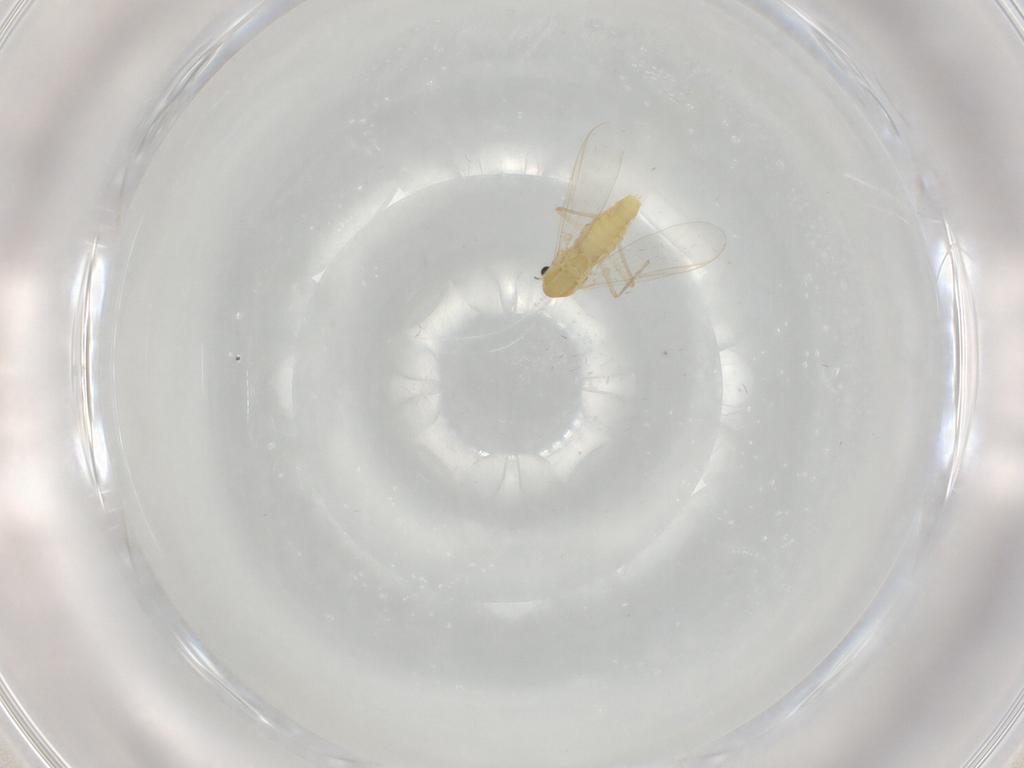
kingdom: Animalia
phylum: Arthropoda
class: Insecta
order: Diptera
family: Chironomidae
